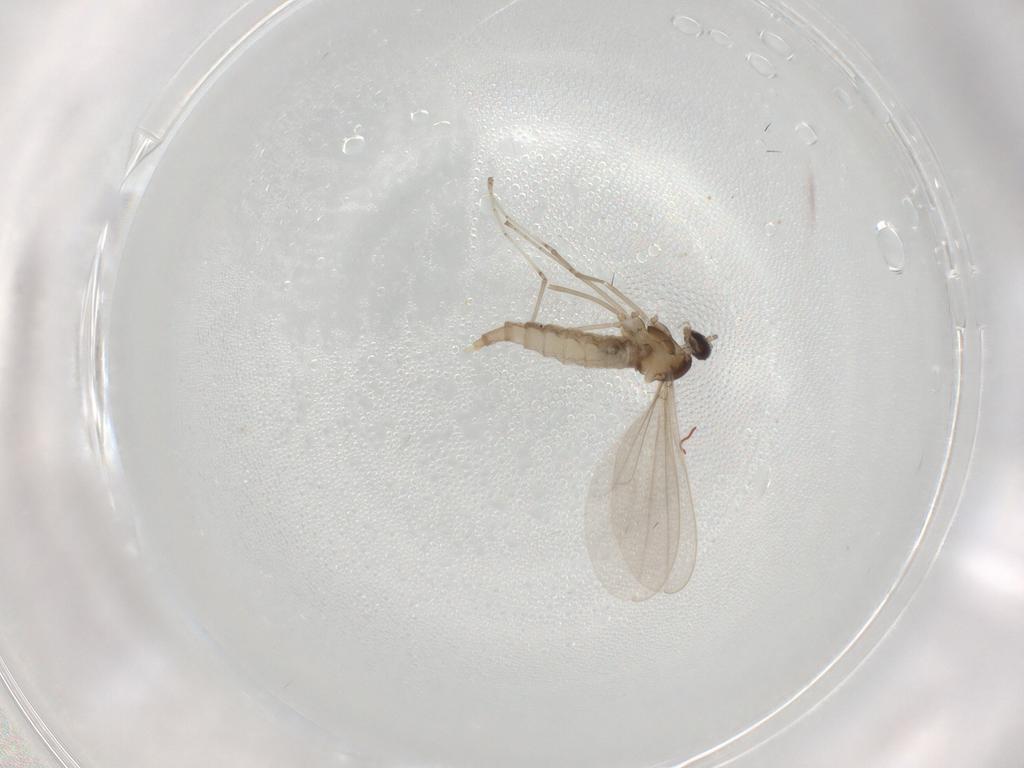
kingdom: Animalia
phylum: Arthropoda
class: Insecta
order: Diptera
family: Cecidomyiidae
